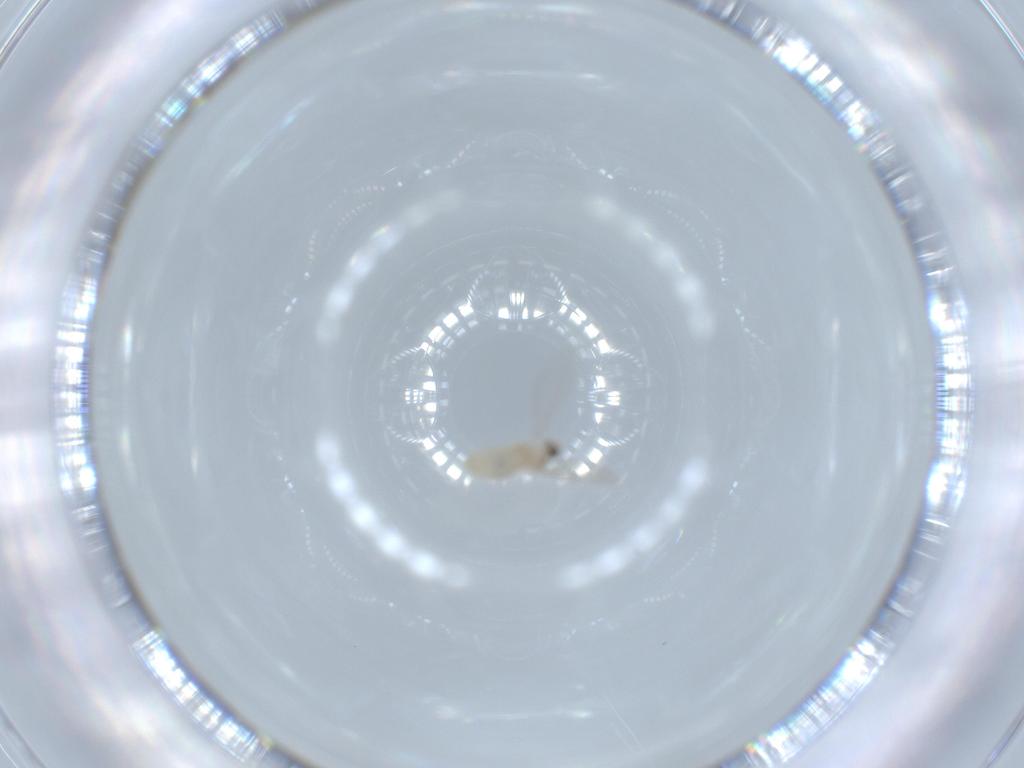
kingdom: Animalia
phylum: Arthropoda
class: Insecta
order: Diptera
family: Cecidomyiidae
